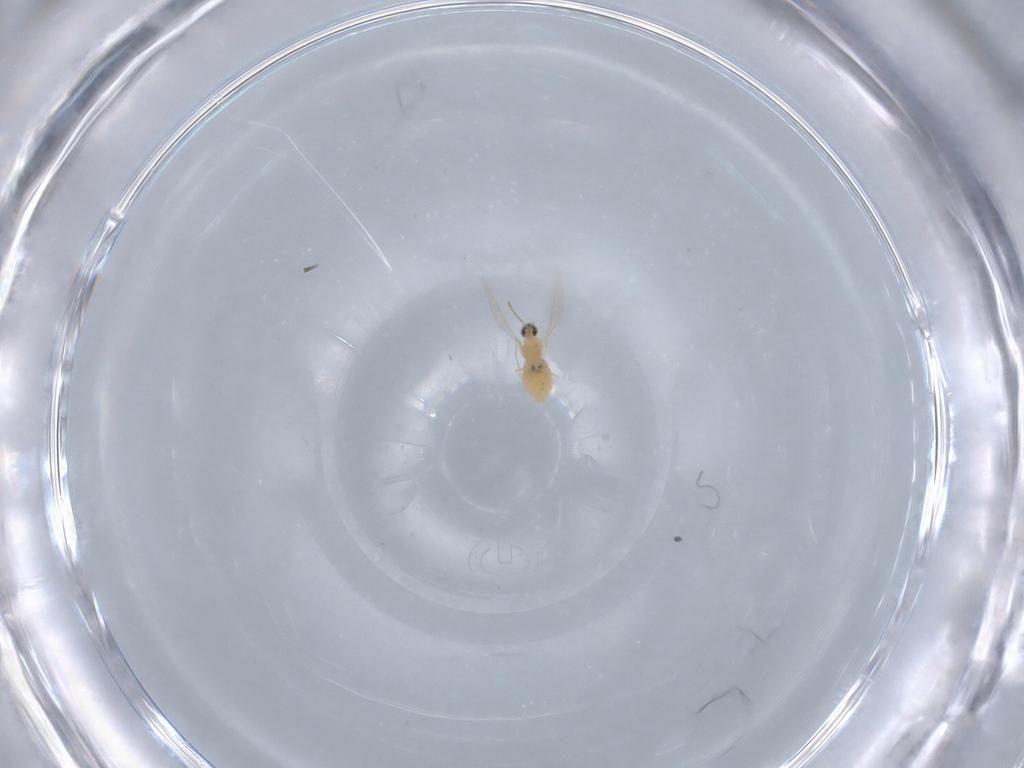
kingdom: Animalia
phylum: Arthropoda
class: Insecta
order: Diptera
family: Cecidomyiidae
